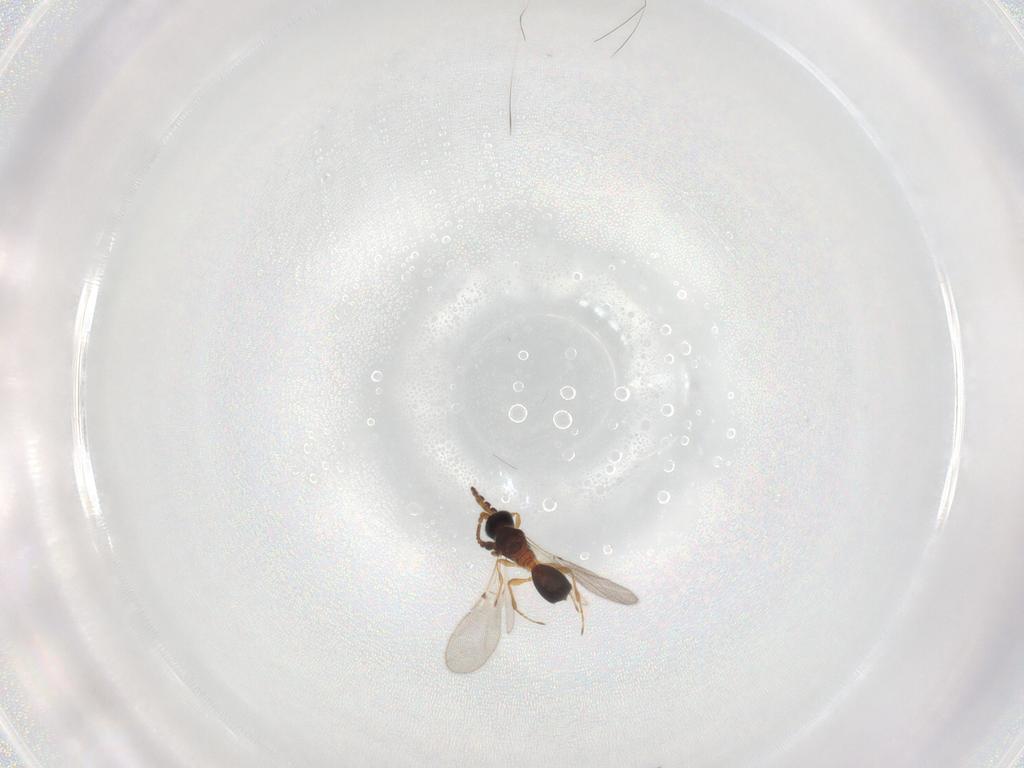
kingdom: Animalia
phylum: Arthropoda
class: Insecta
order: Hymenoptera
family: Diapriidae
